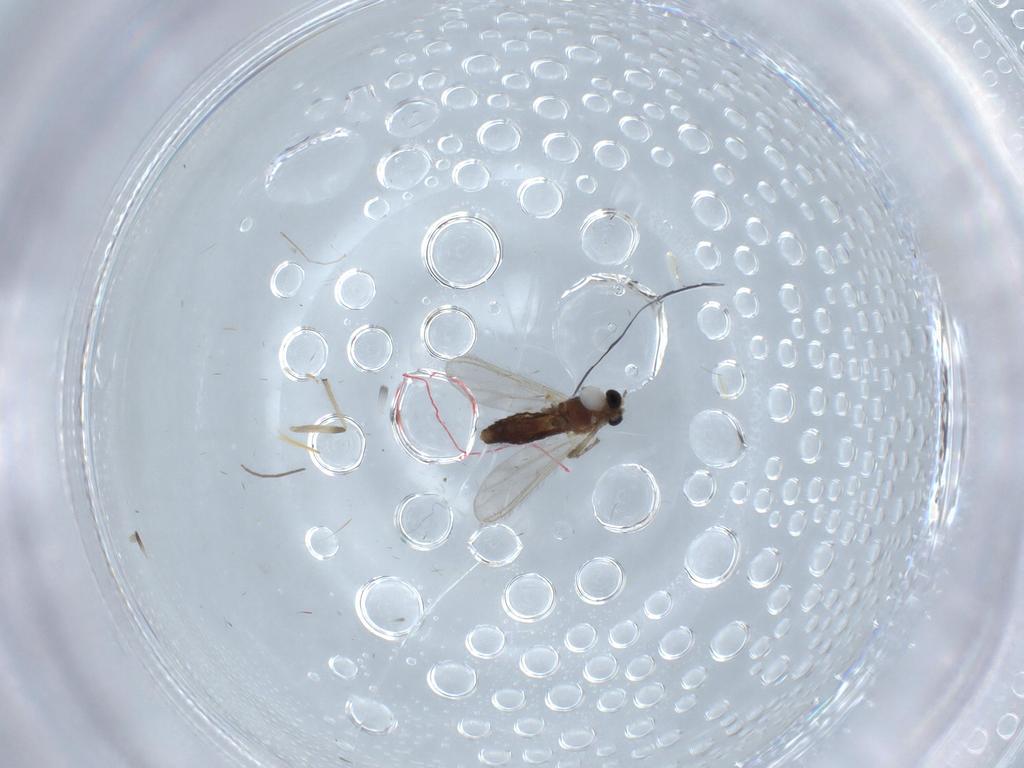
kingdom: Animalia
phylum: Arthropoda
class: Insecta
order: Diptera
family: Chironomidae
